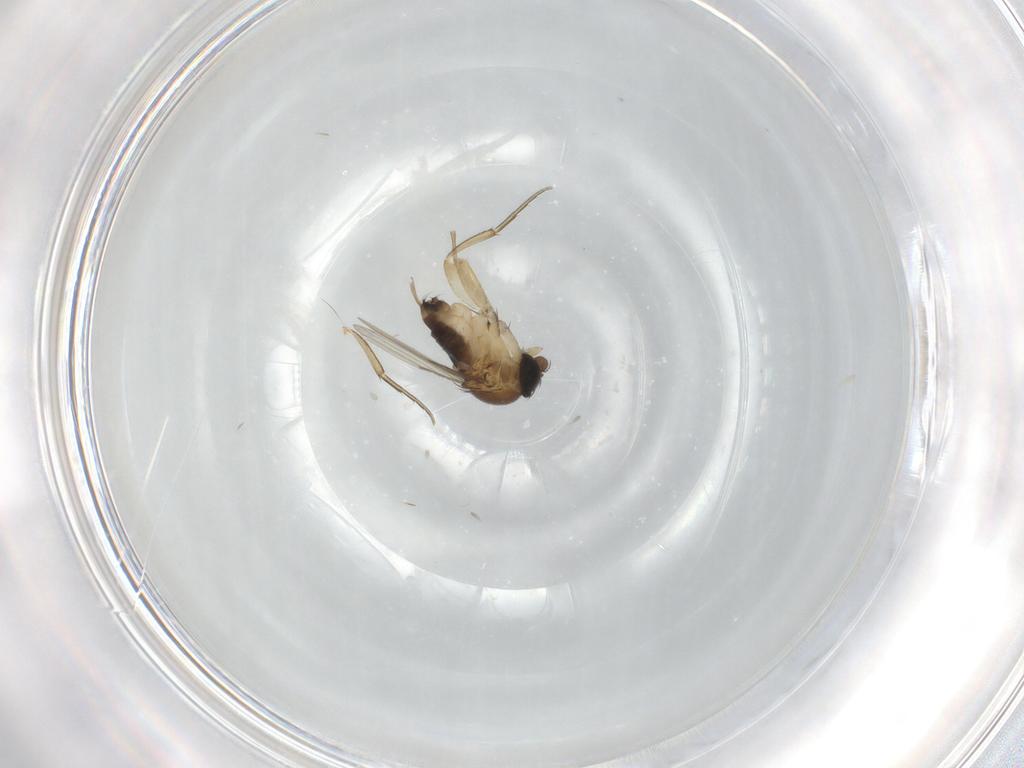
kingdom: Animalia
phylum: Arthropoda
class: Insecta
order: Diptera
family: Phoridae
